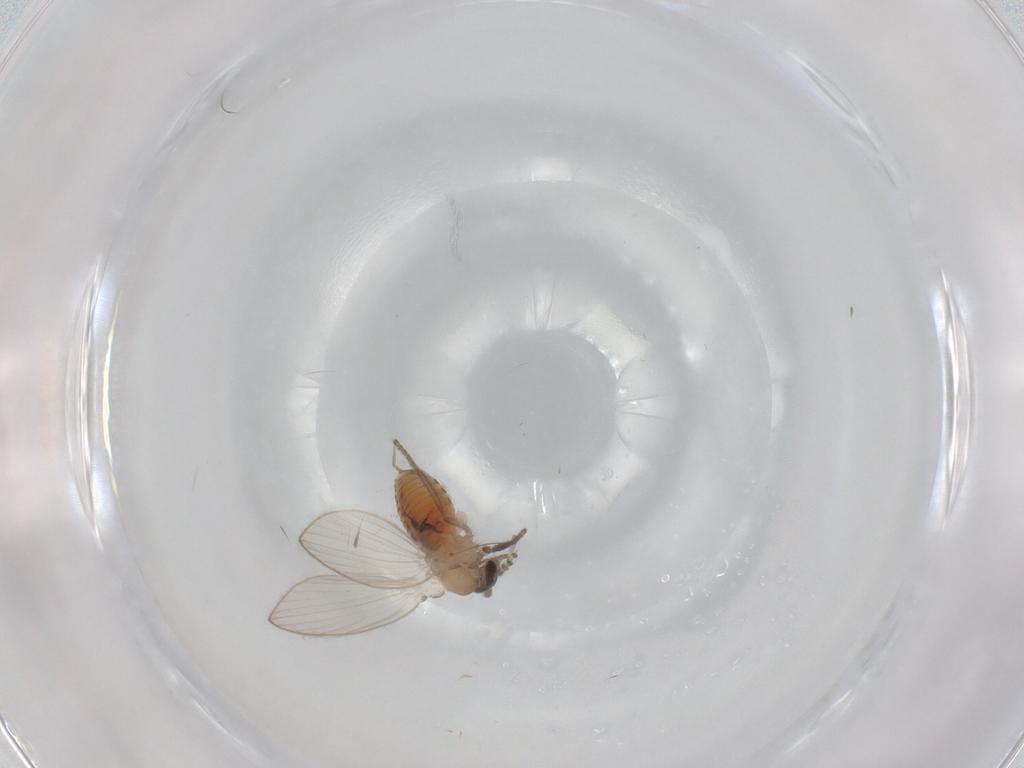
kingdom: Animalia
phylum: Arthropoda
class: Insecta
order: Diptera
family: Psychodidae
